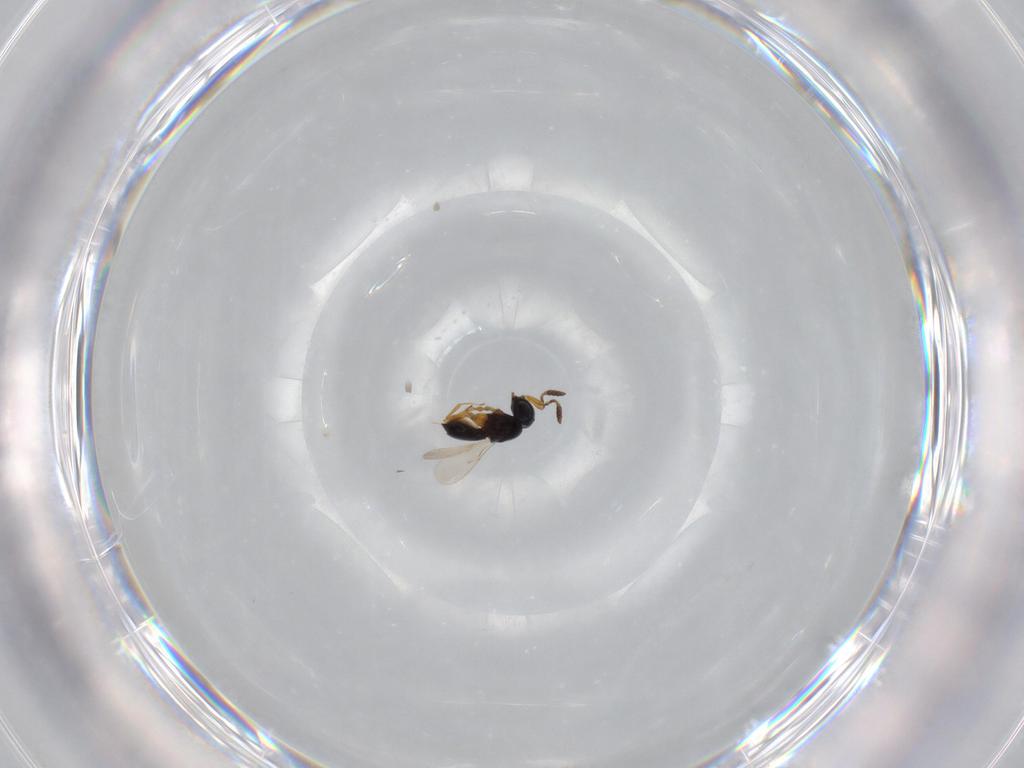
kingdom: Animalia
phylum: Arthropoda
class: Insecta
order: Hymenoptera
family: Scelionidae
